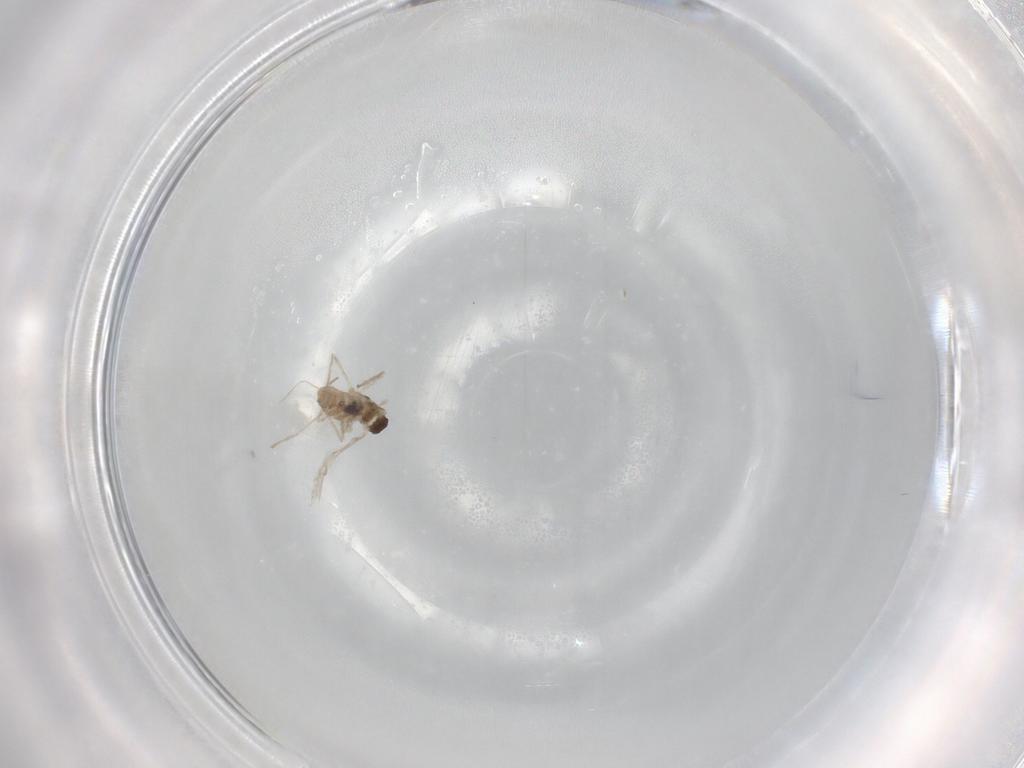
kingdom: Animalia
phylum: Arthropoda
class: Insecta
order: Diptera
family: Cecidomyiidae
